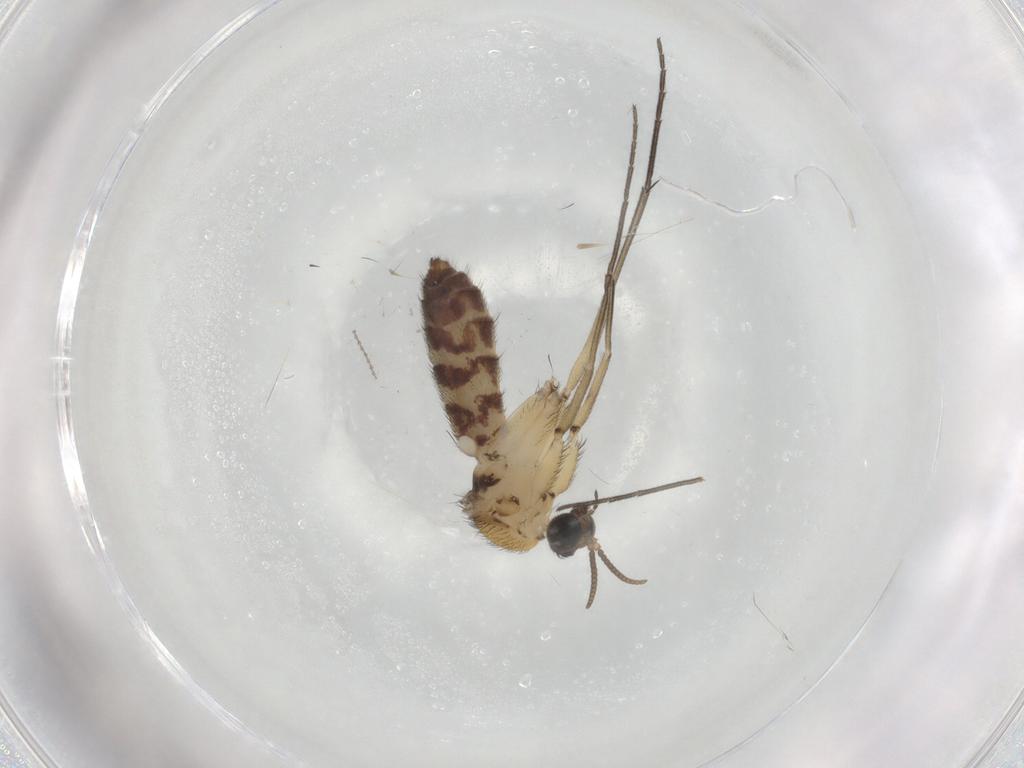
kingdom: Animalia
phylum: Arthropoda
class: Insecta
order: Diptera
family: Keroplatidae
